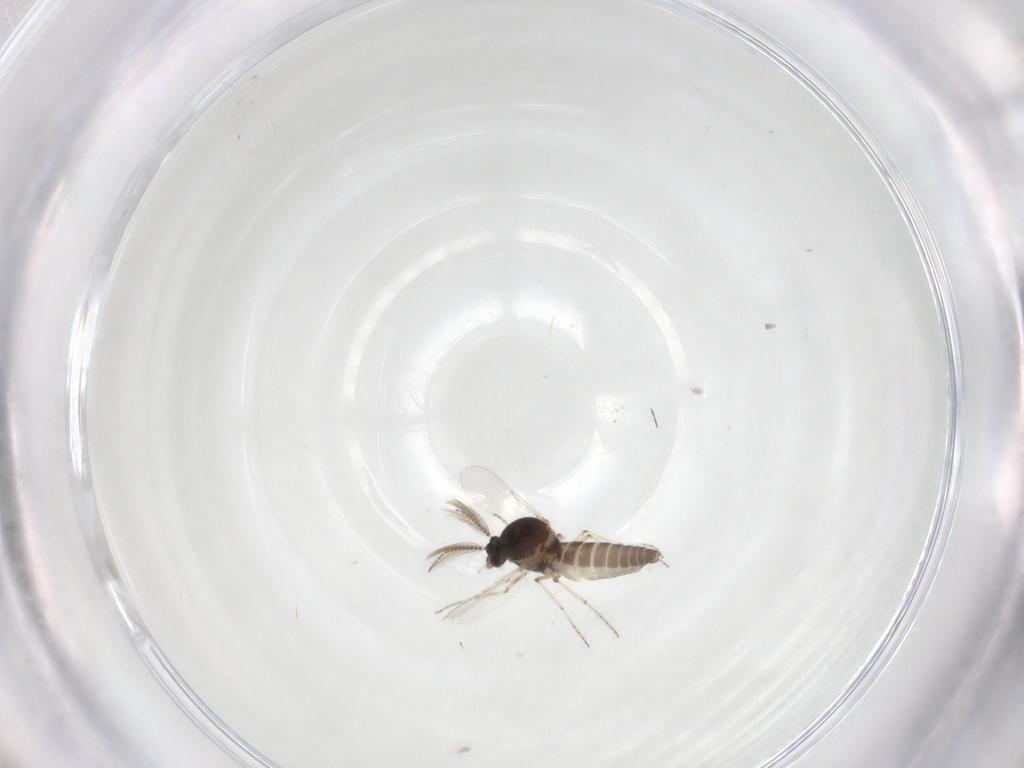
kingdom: Animalia
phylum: Arthropoda
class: Insecta
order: Diptera
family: Ceratopogonidae
